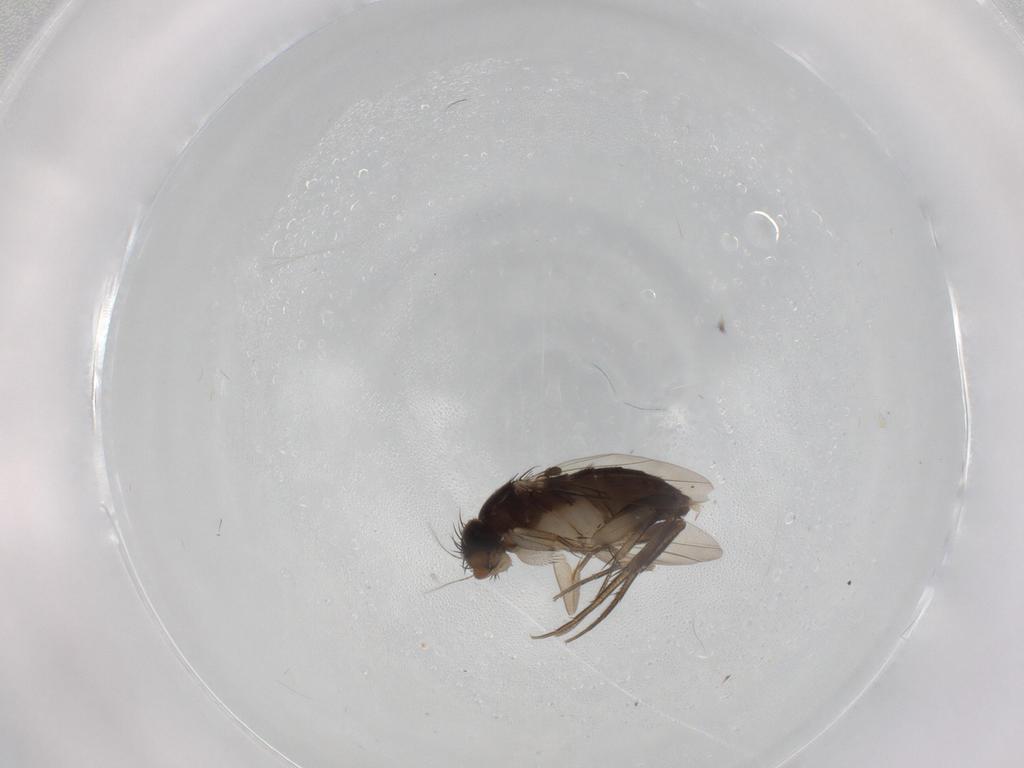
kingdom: Animalia
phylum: Arthropoda
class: Insecta
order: Diptera
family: Phoridae
